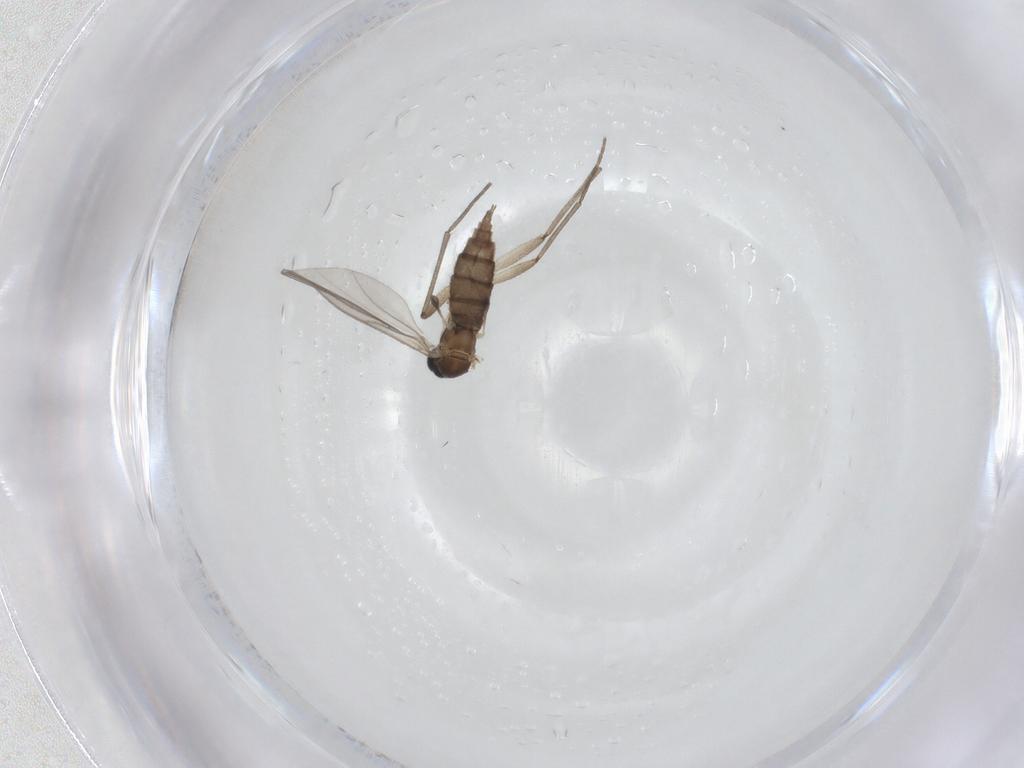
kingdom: Animalia
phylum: Arthropoda
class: Insecta
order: Diptera
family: Sciaridae
